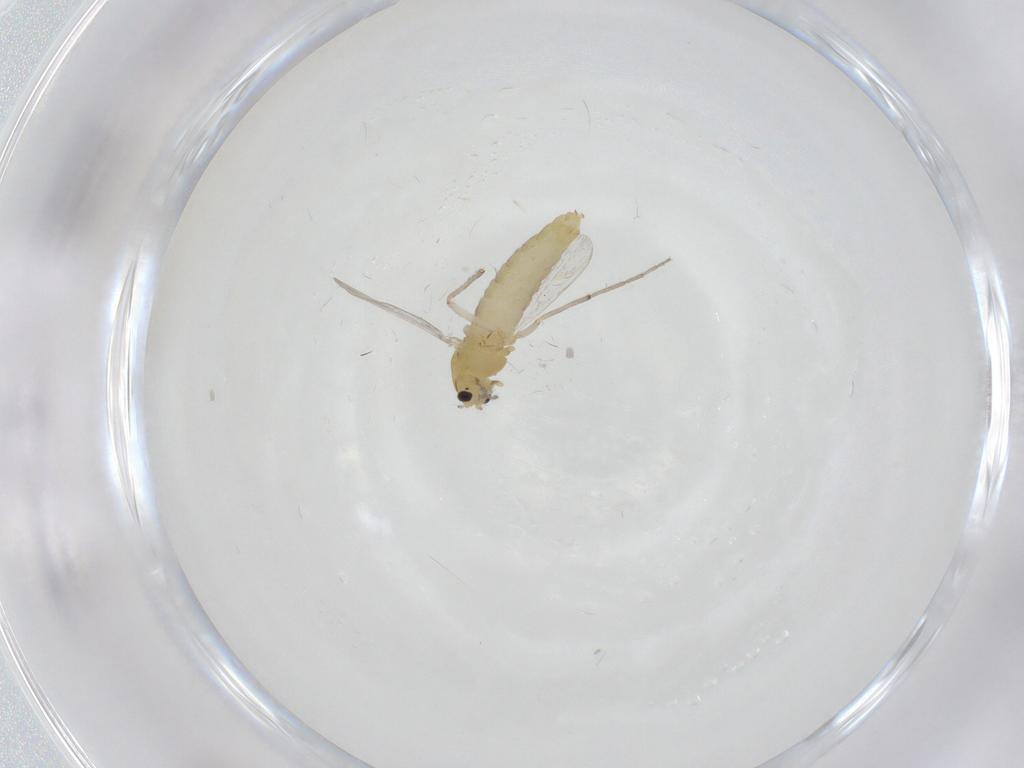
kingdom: Animalia
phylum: Arthropoda
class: Insecta
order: Diptera
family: Chironomidae
